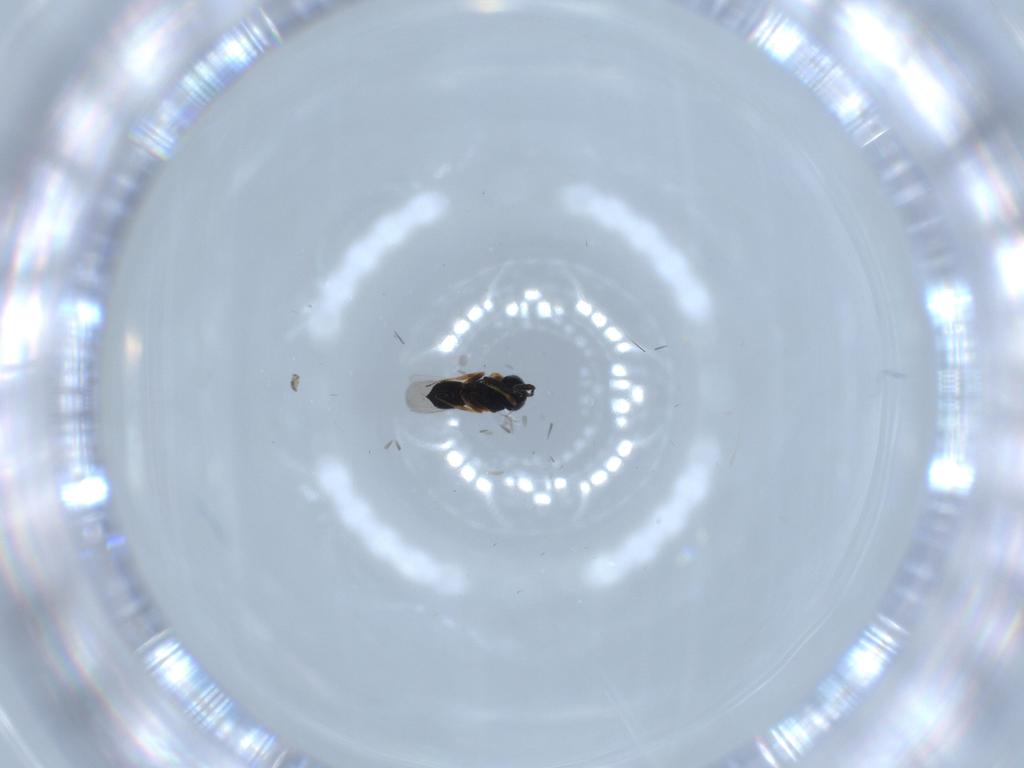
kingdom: Animalia
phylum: Arthropoda
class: Insecta
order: Hymenoptera
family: Scelionidae
